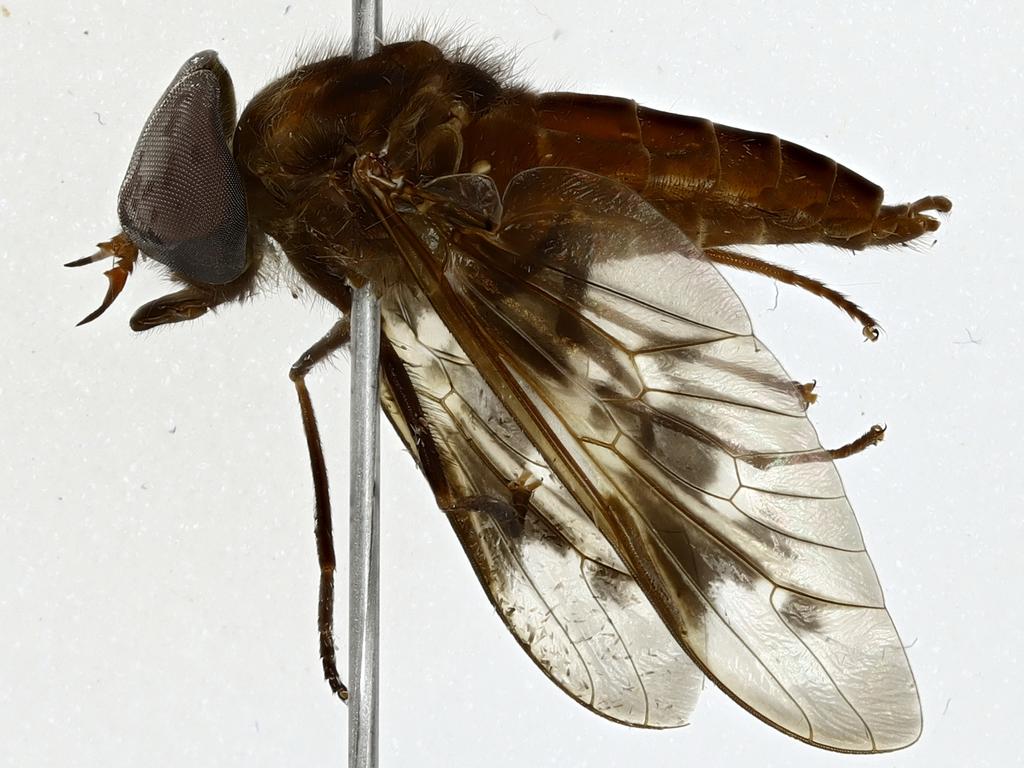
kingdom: Animalia
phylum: Arthropoda
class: Insecta
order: Diptera
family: Tabanidae
